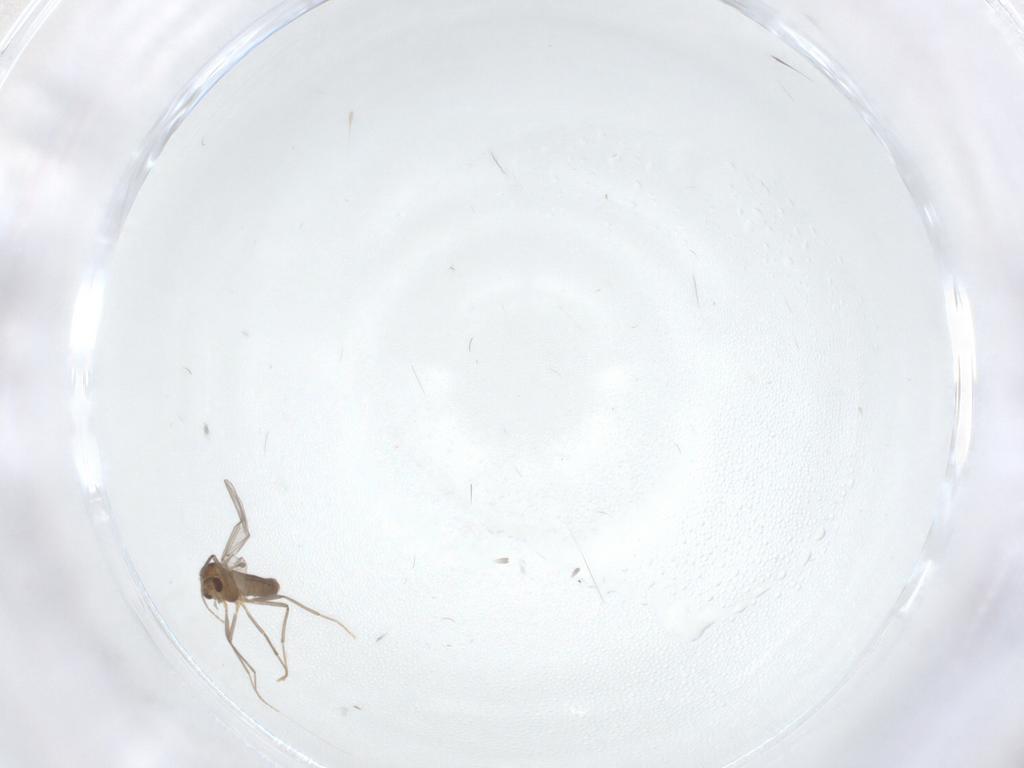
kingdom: Animalia
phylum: Arthropoda
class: Insecta
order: Diptera
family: Chironomidae
